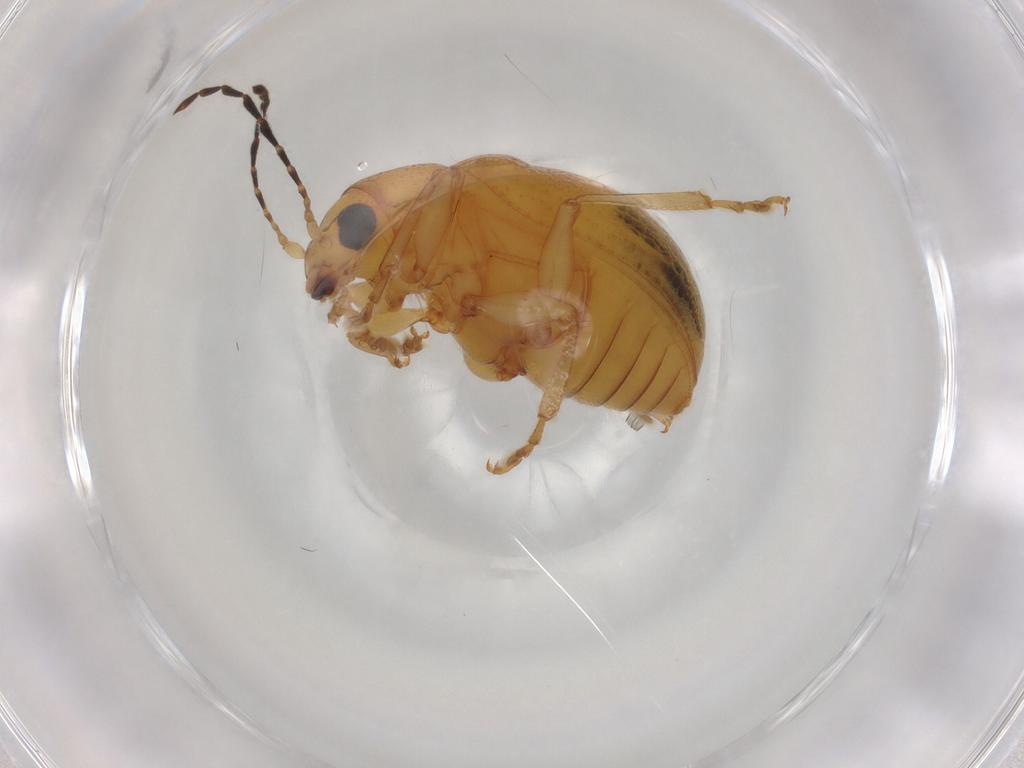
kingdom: Animalia
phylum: Arthropoda
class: Insecta
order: Coleoptera
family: Chrysomelidae
